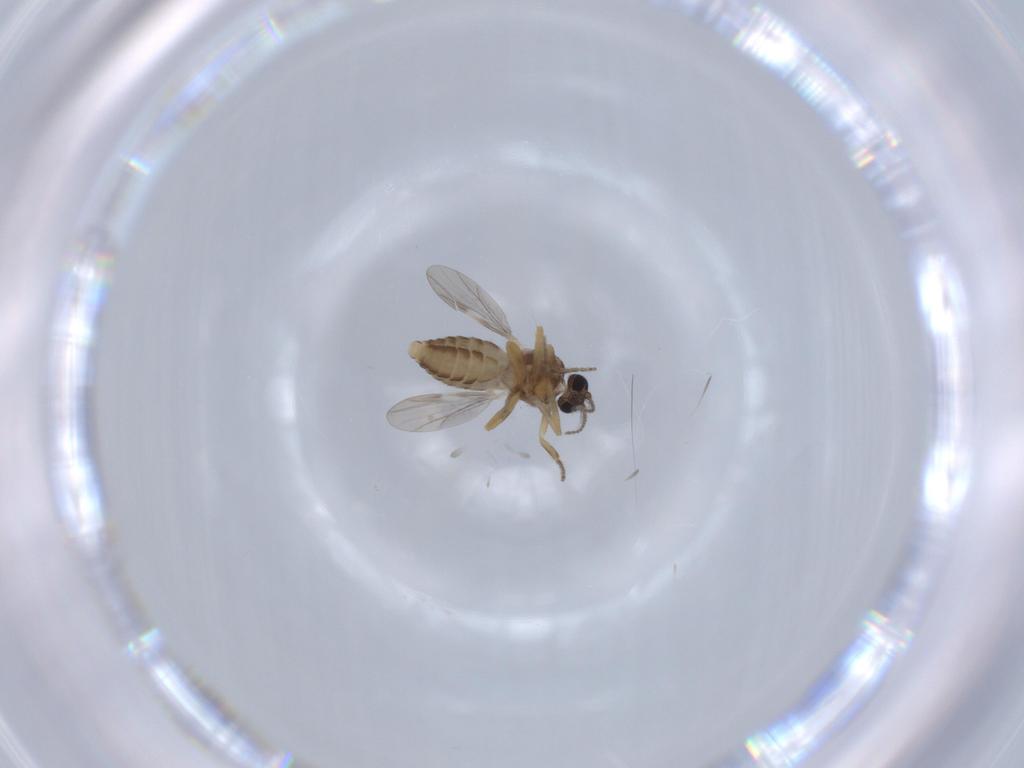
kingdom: Animalia
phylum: Arthropoda
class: Insecta
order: Diptera
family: Ceratopogonidae
